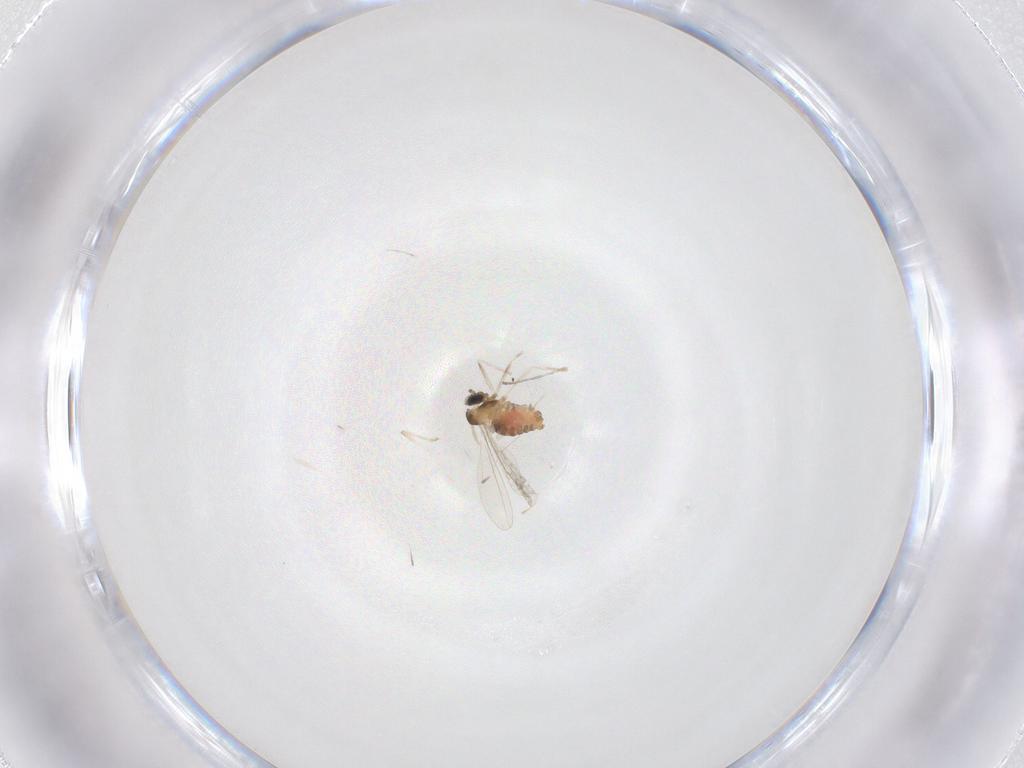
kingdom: Animalia
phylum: Arthropoda
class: Insecta
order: Diptera
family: Cecidomyiidae
